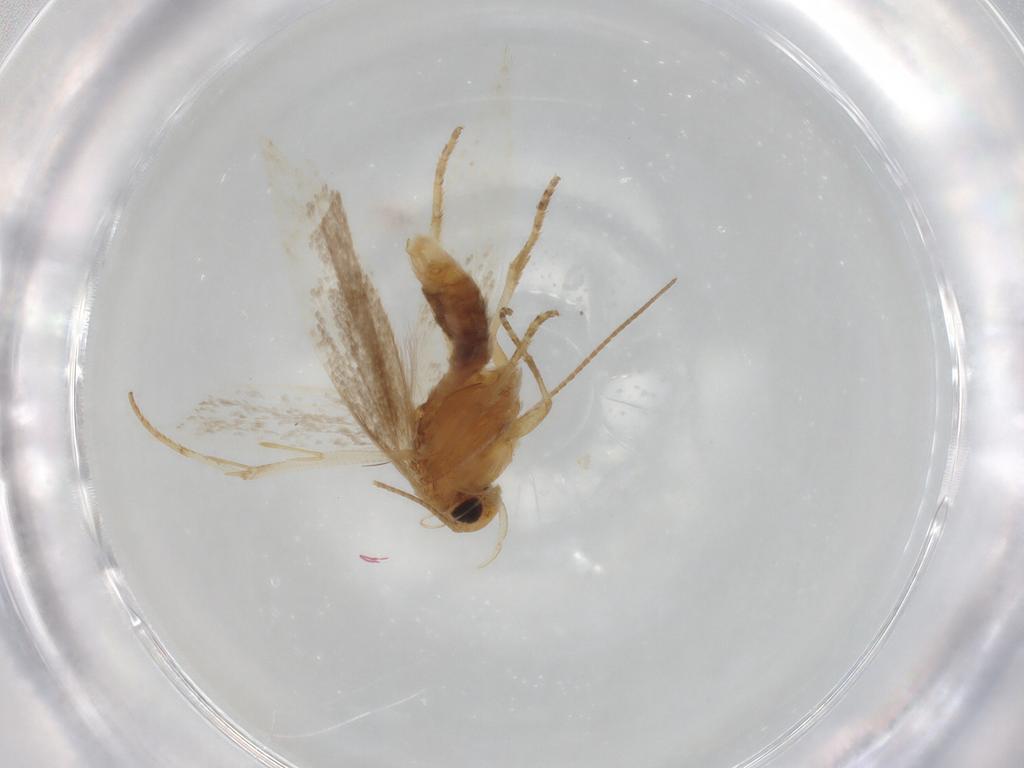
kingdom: Animalia
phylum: Arthropoda
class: Insecta
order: Lepidoptera
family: Gelechiidae
